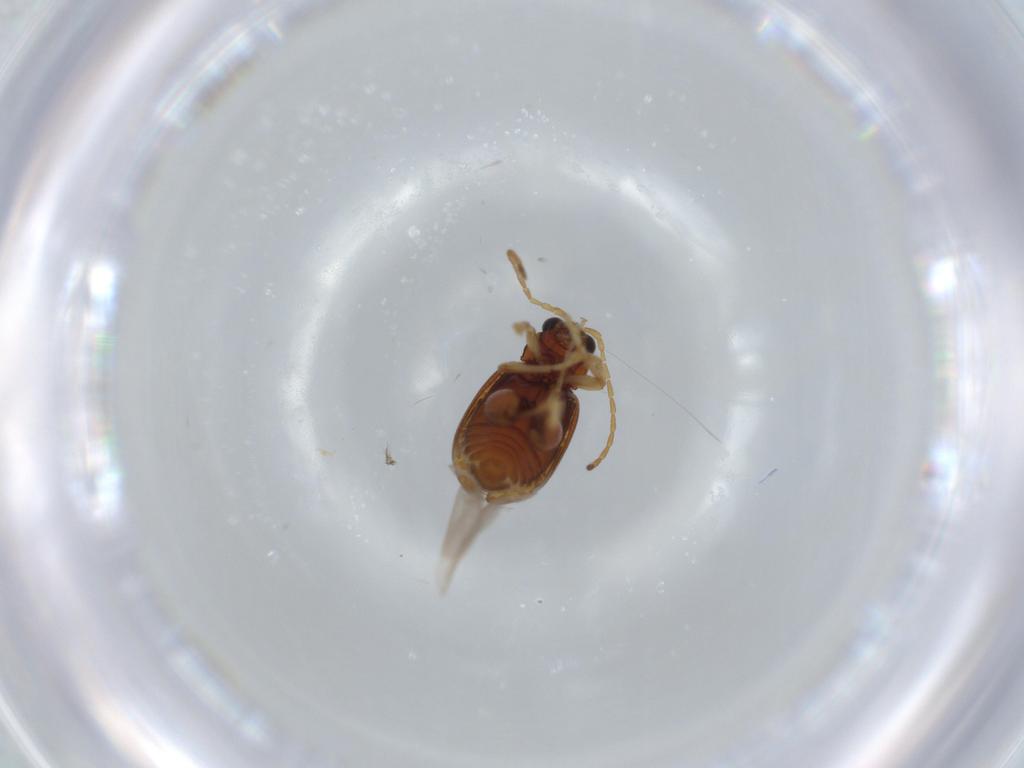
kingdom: Animalia
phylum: Arthropoda
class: Insecta
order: Coleoptera
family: Chrysomelidae
